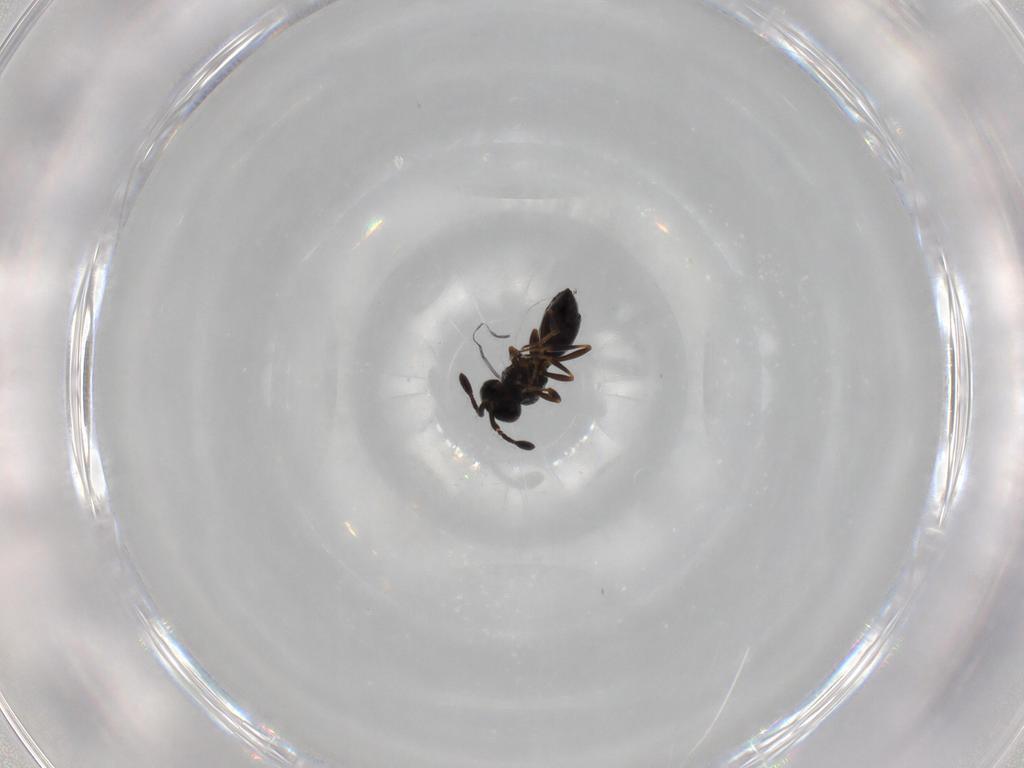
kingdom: Animalia
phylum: Arthropoda
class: Insecta
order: Hymenoptera
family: Scelionidae
